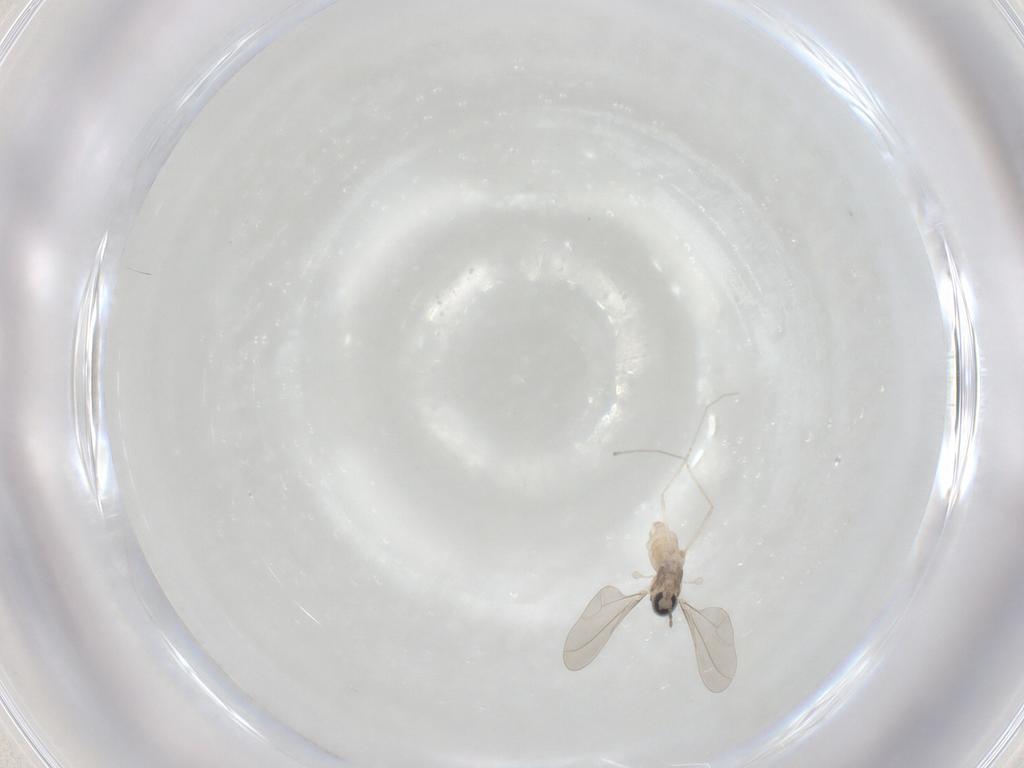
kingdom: Animalia
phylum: Arthropoda
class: Insecta
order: Diptera
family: Cecidomyiidae
